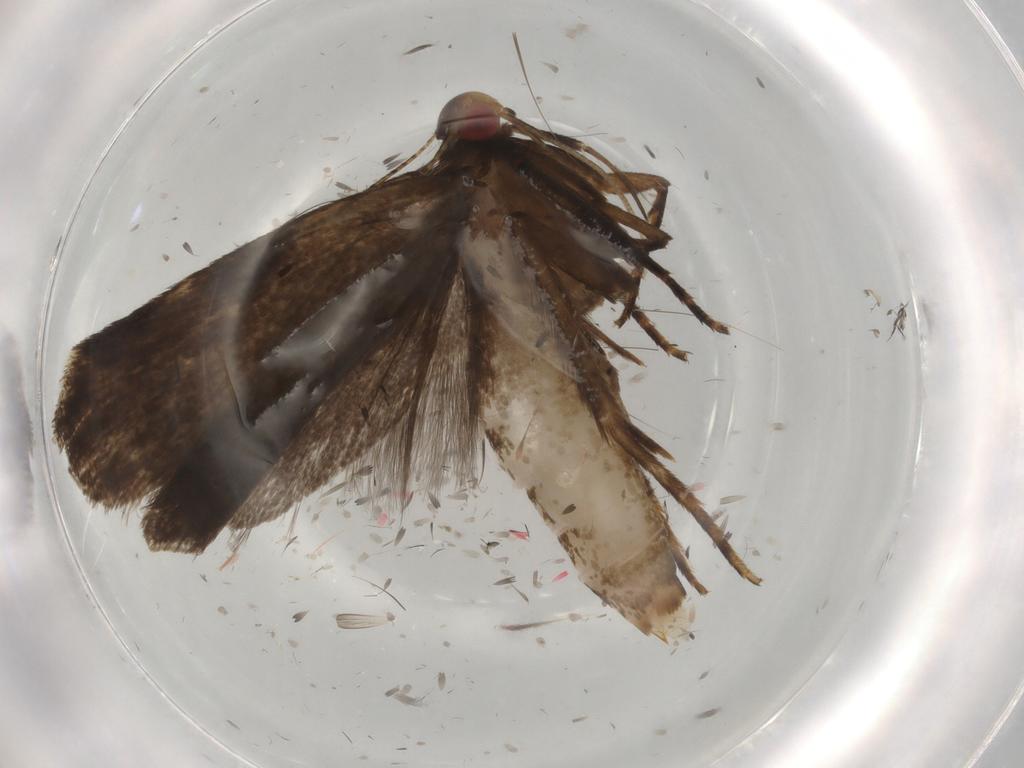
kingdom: Animalia
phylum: Arthropoda
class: Insecta
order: Lepidoptera
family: Gelechiidae
